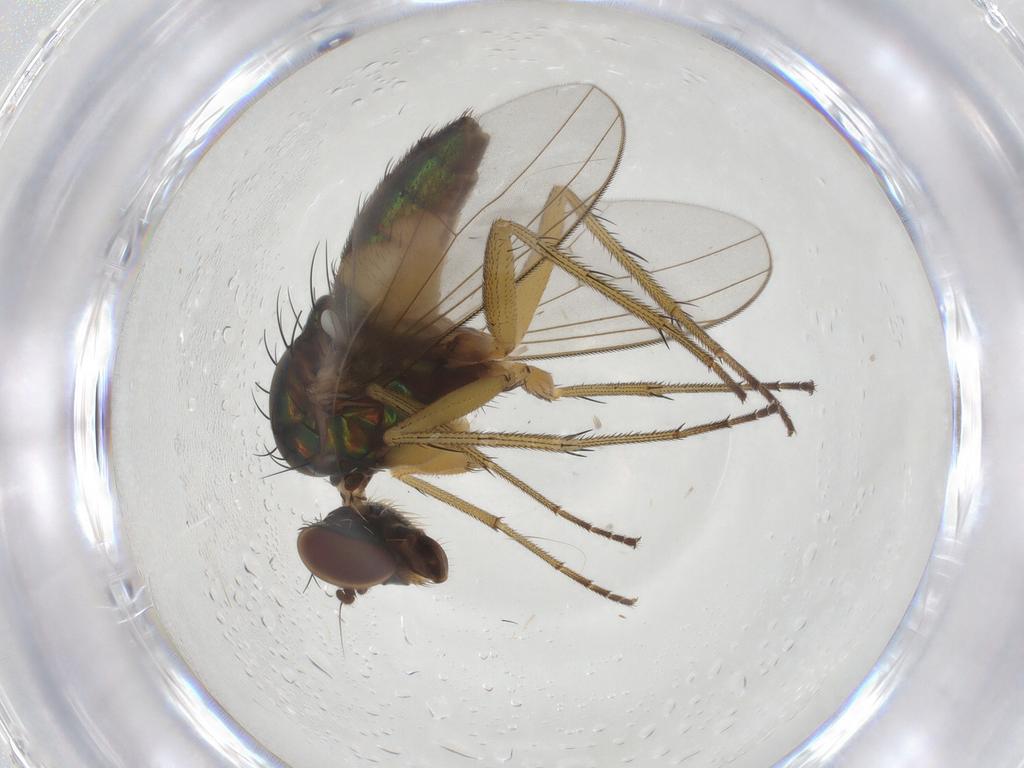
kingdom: Animalia
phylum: Arthropoda
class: Insecta
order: Diptera
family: Dolichopodidae
